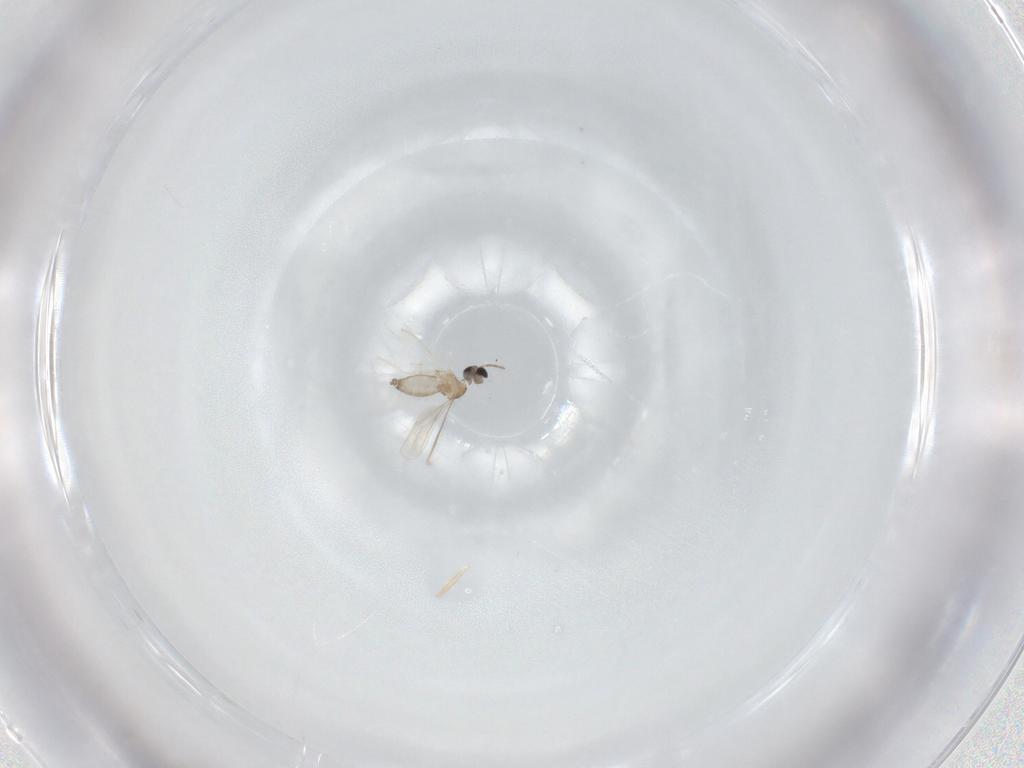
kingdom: Animalia
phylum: Arthropoda
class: Insecta
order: Diptera
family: Cecidomyiidae
